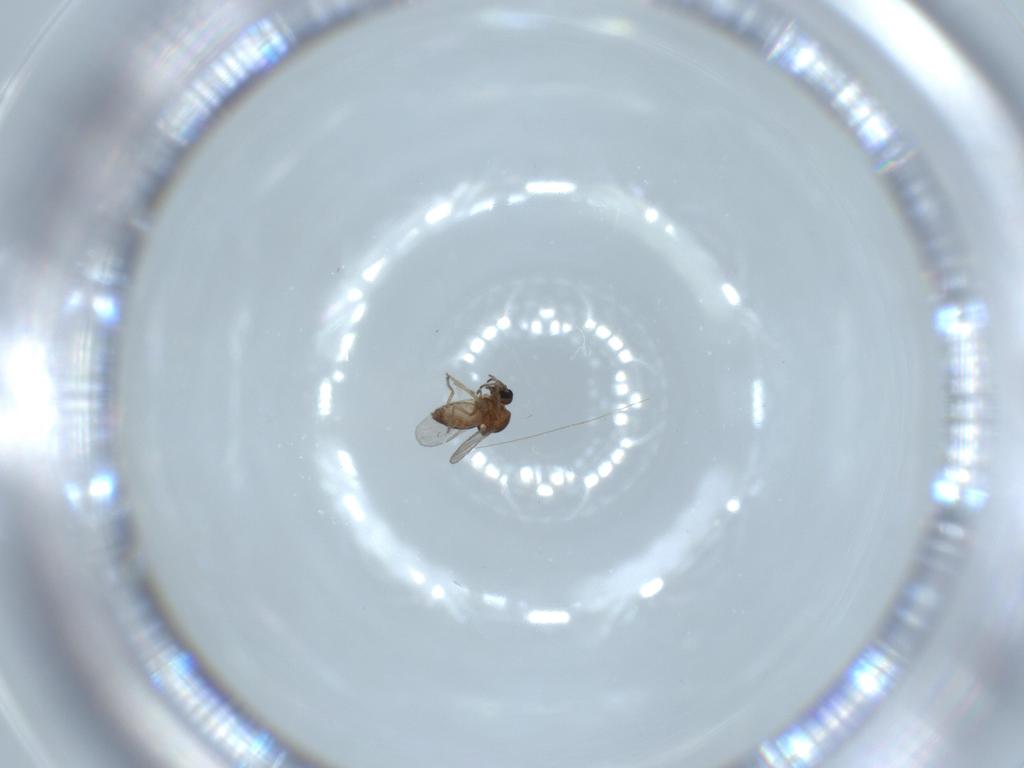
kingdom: Animalia
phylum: Arthropoda
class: Insecta
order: Diptera
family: Ceratopogonidae
